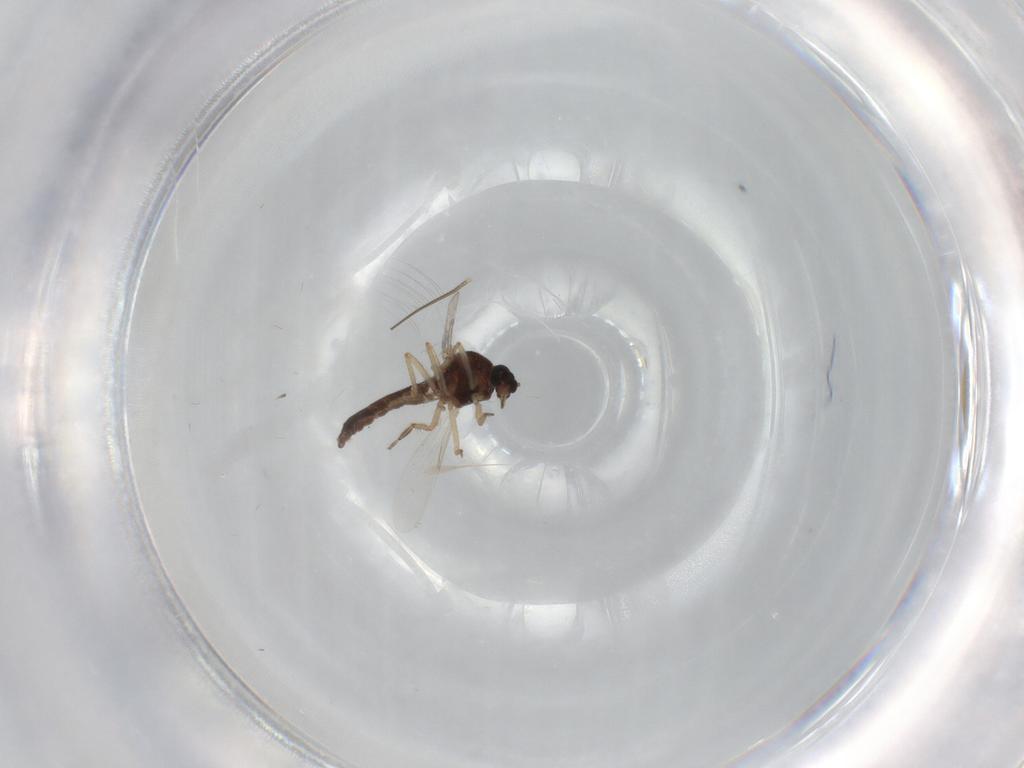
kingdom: Animalia
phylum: Arthropoda
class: Insecta
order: Diptera
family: Ceratopogonidae
